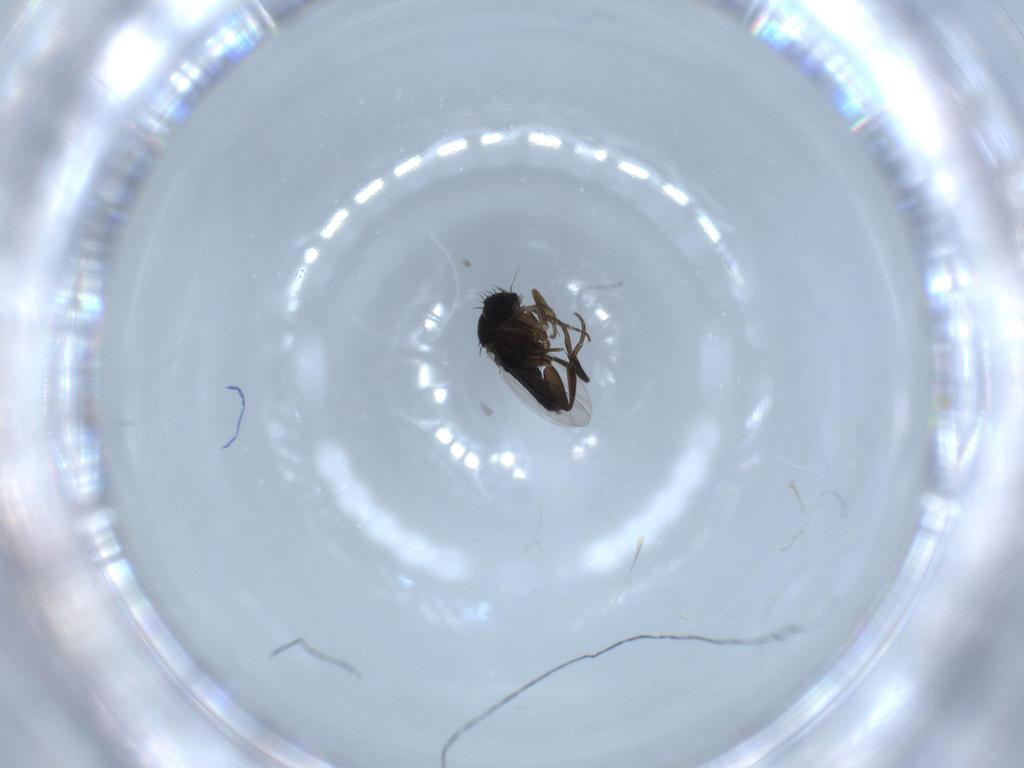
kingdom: Animalia
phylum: Arthropoda
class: Insecta
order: Diptera
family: Phoridae
